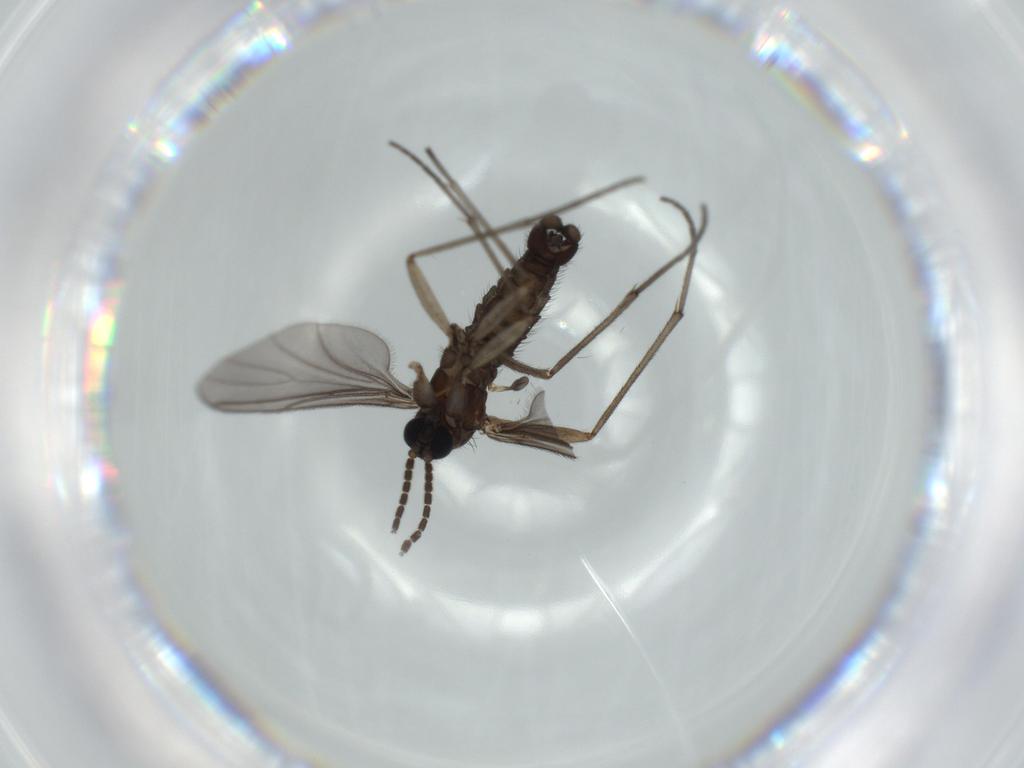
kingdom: Animalia
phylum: Arthropoda
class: Insecta
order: Diptera
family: Sciaridae
